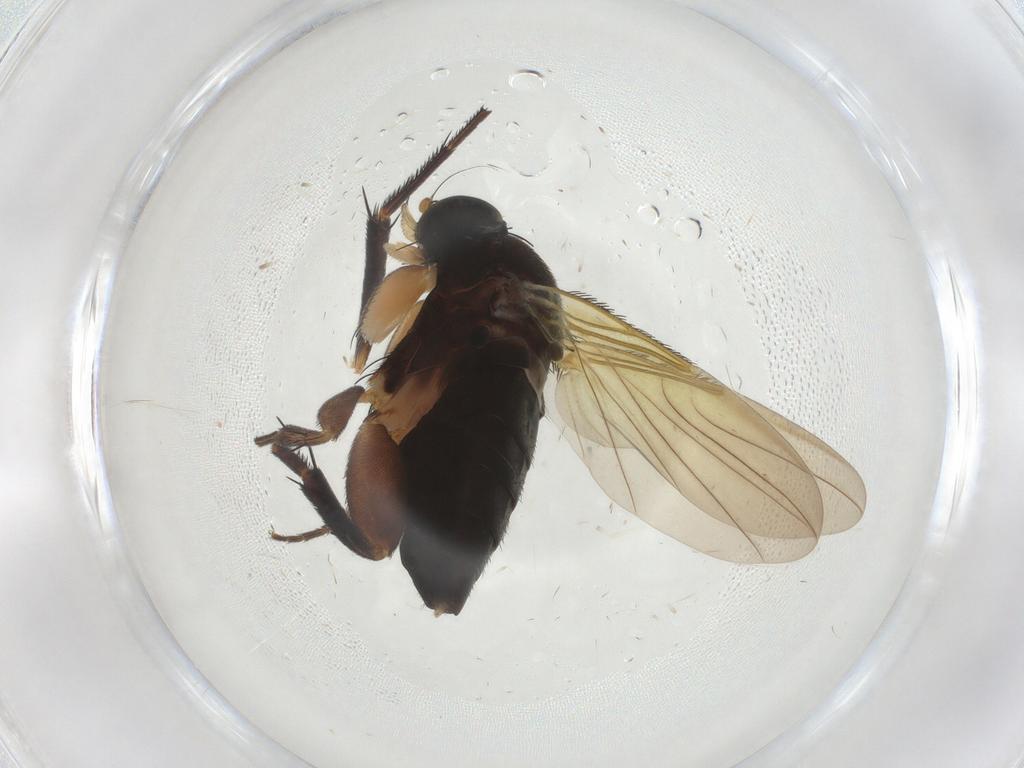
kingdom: Animalia
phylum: Arthropoda
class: Insecta
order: Diptera
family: Phoridae
